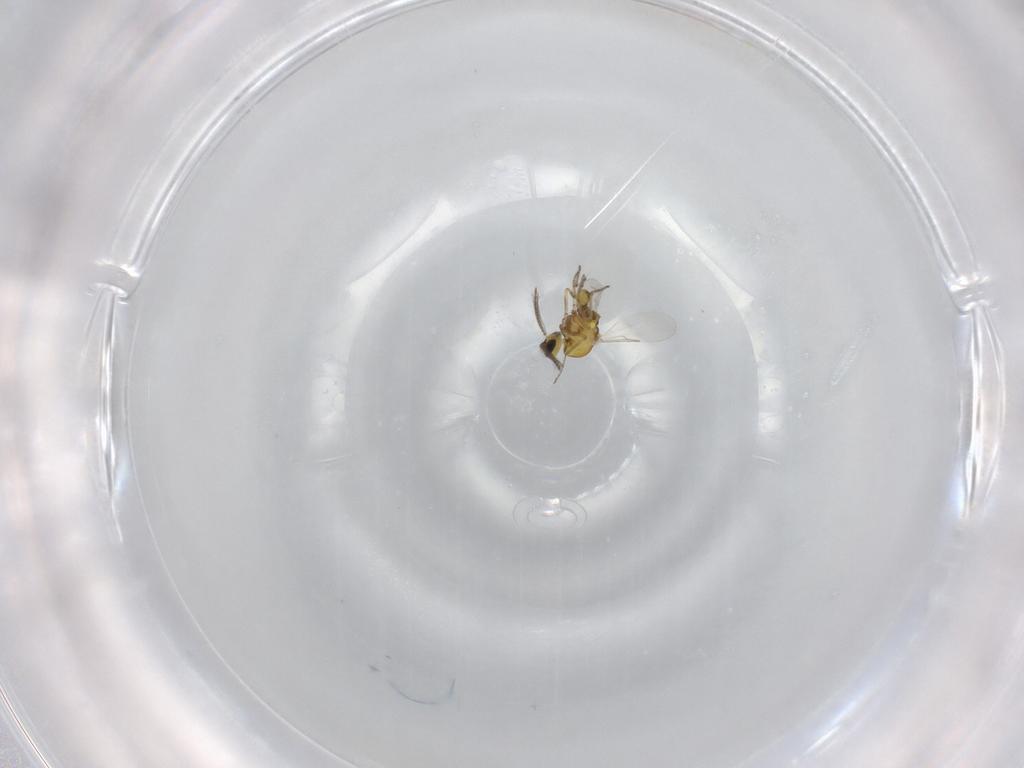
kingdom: Animalia
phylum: Arthropoda
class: Insecta
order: Diptera
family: Ceratopogonidae
